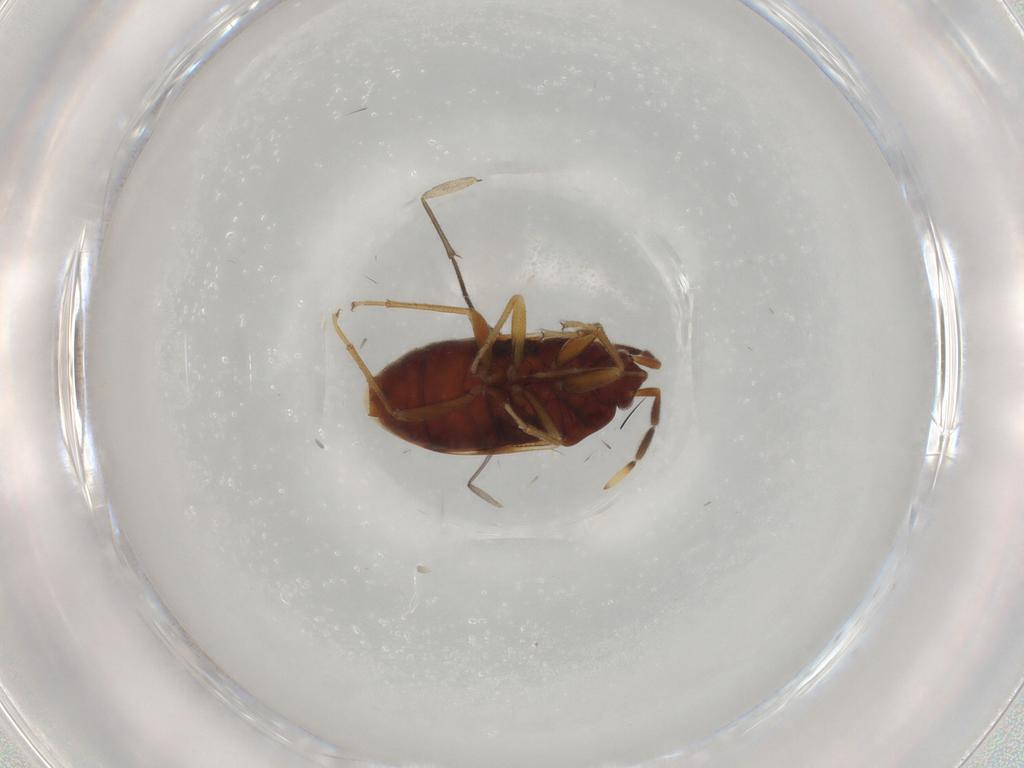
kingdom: Animalia
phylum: Arthropoda
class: Insecta
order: Hemiptera
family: Rhyparochromidae
